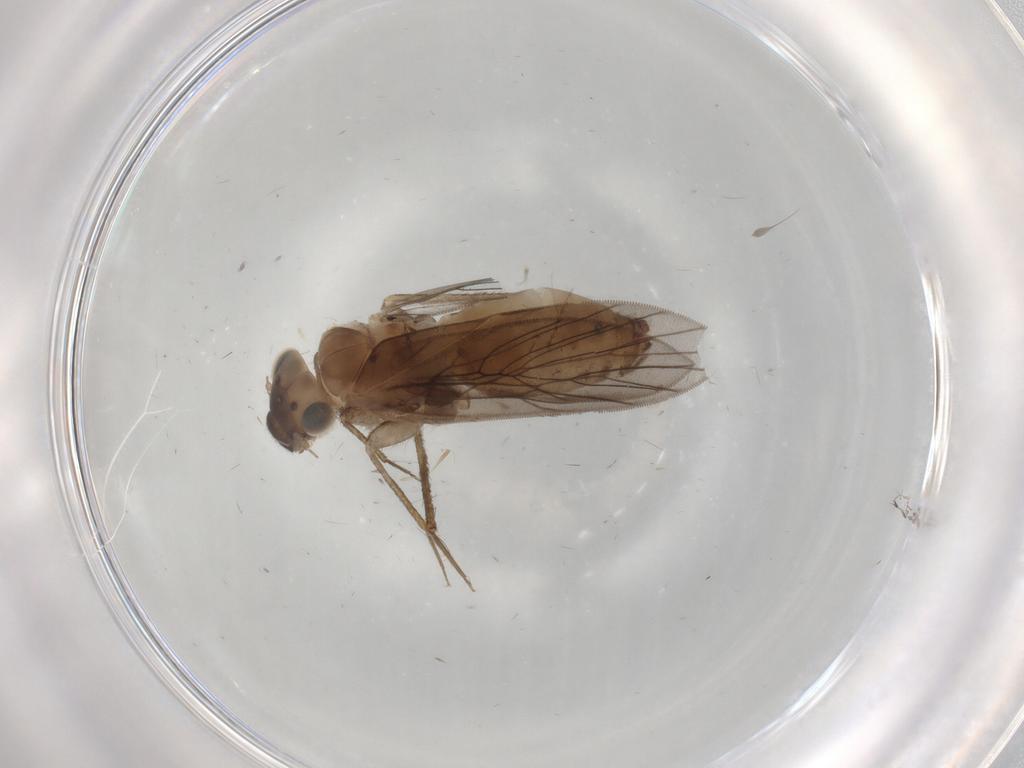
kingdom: Animalia
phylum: Arthropoda
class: Insecta
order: Psocodea
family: Lepidopsocidae
